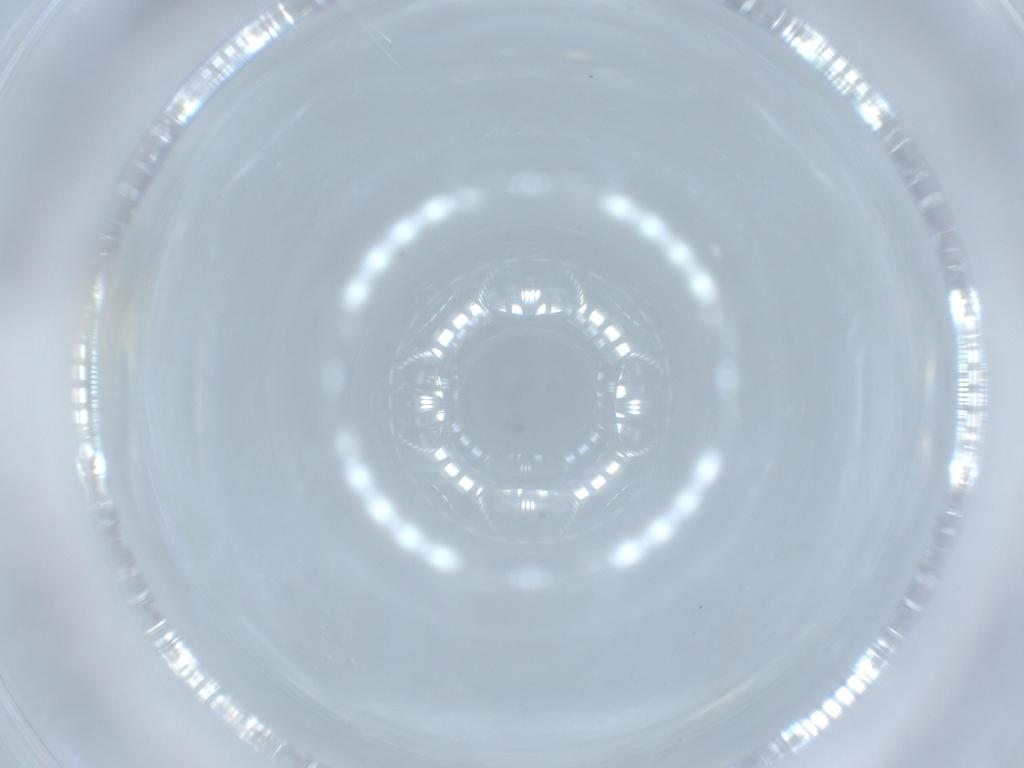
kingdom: Animalia
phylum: Arthropoda
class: Insecta
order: Diptera
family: Cecidomyiidae
